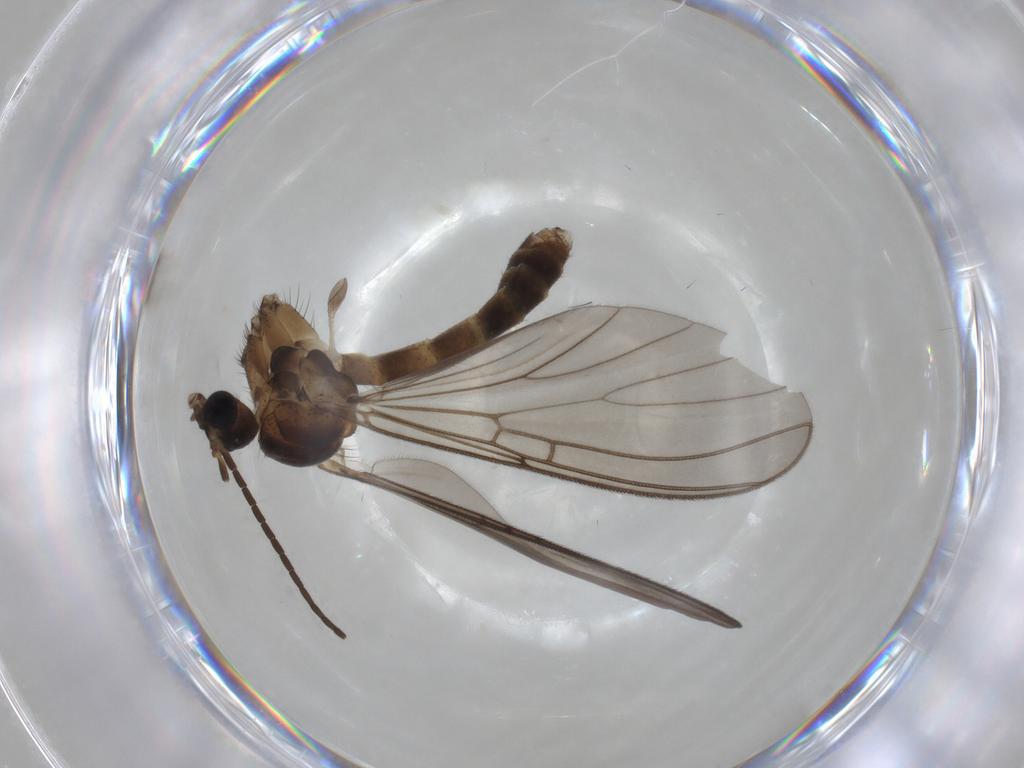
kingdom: Animalia
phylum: Arthropoda
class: Insecta
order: Diptera
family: Mycetophilidae
